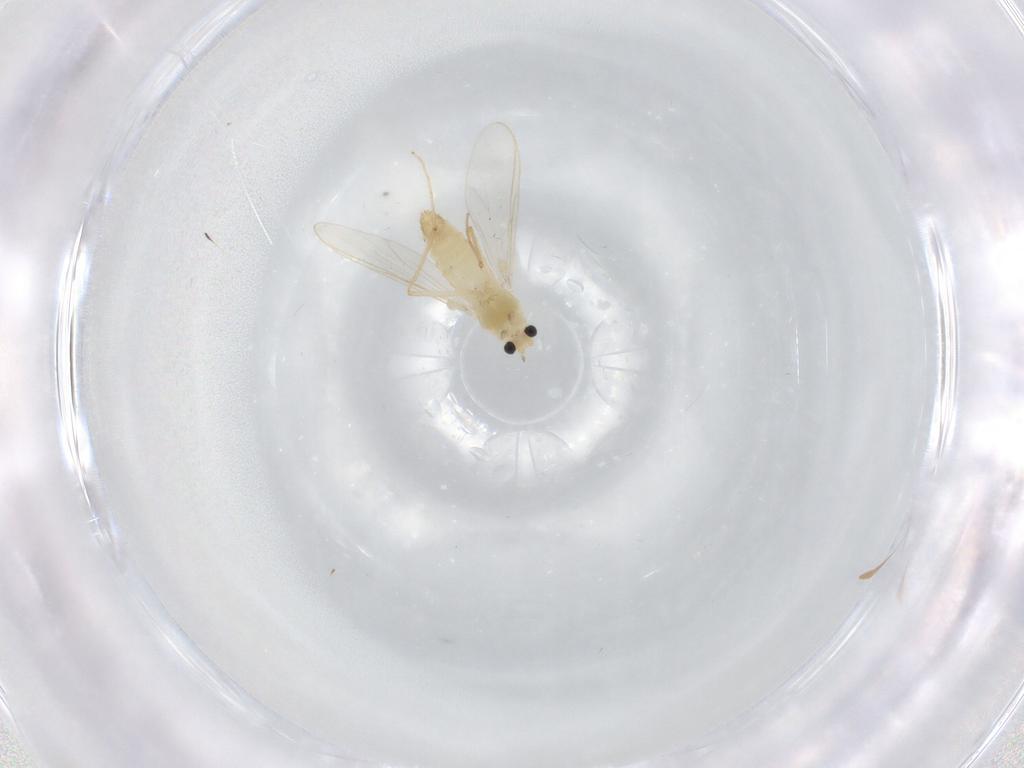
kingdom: Animalia
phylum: Arthropoda
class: Insecta
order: Diptera
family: Chironomidae
